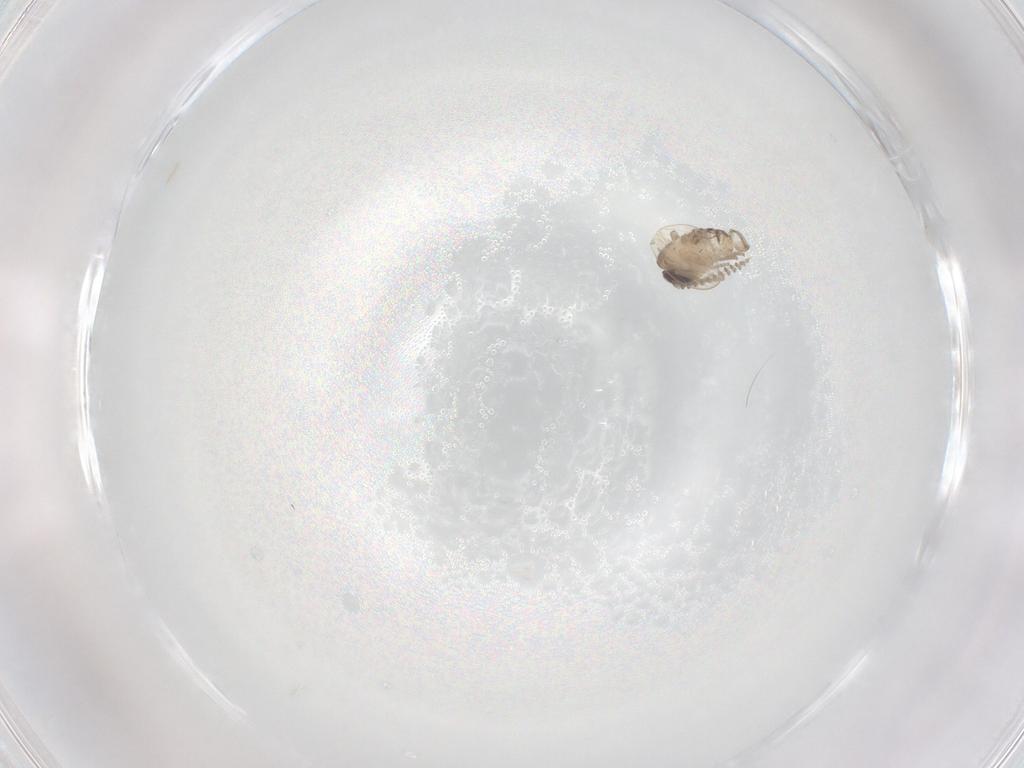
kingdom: Animalia
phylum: Arthropoda
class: Insecta
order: Diptera
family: Psychodidae
